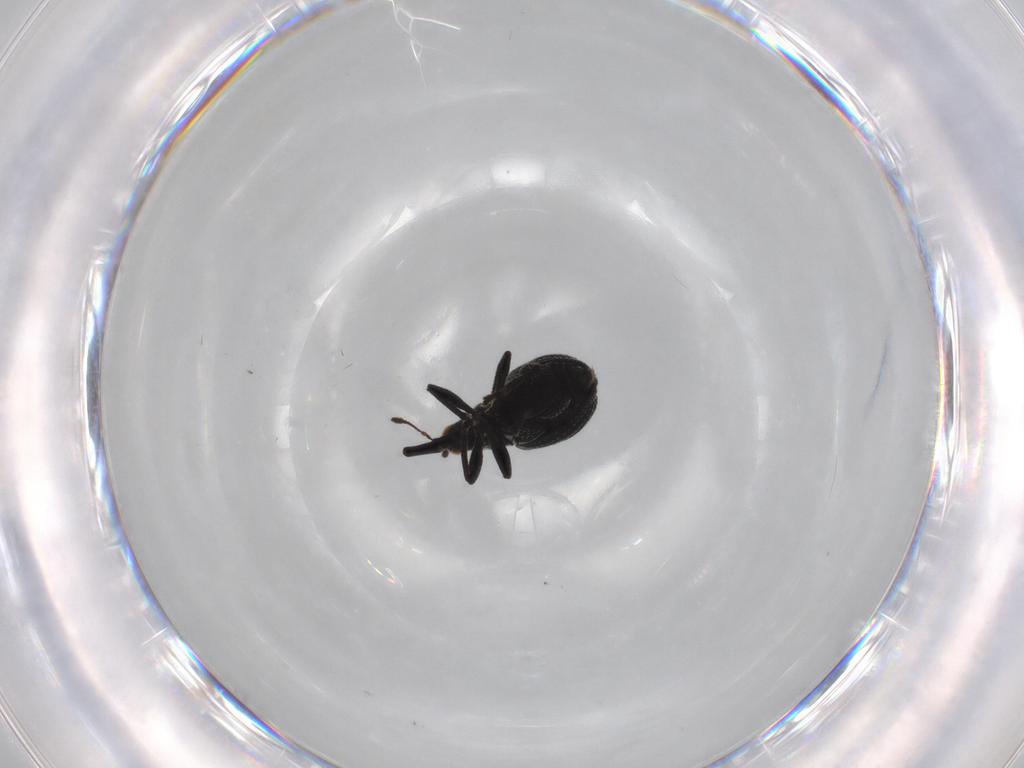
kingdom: Animalia
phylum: Arthropoda
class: Insecta
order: Coleoptera
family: Brentidae
